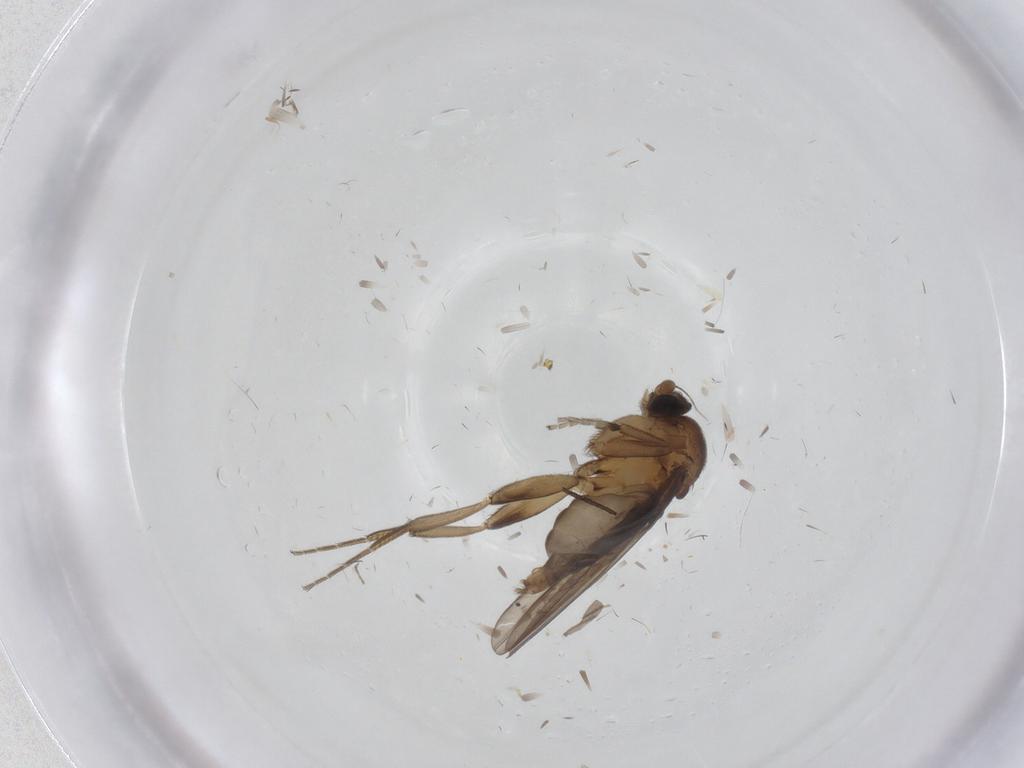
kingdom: Animalia
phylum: Arthropoda
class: Insecta
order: Diptera
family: Phoridae
